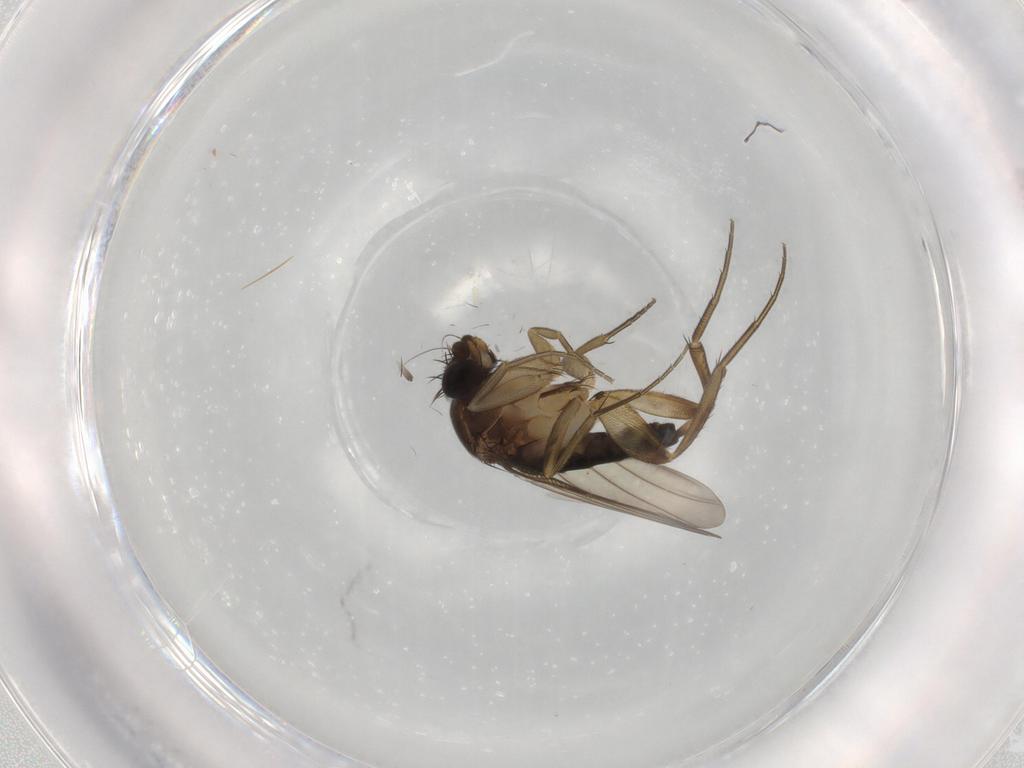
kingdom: Animalia
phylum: Arthropoda
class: Insecta
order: Diptera
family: Phoridae
